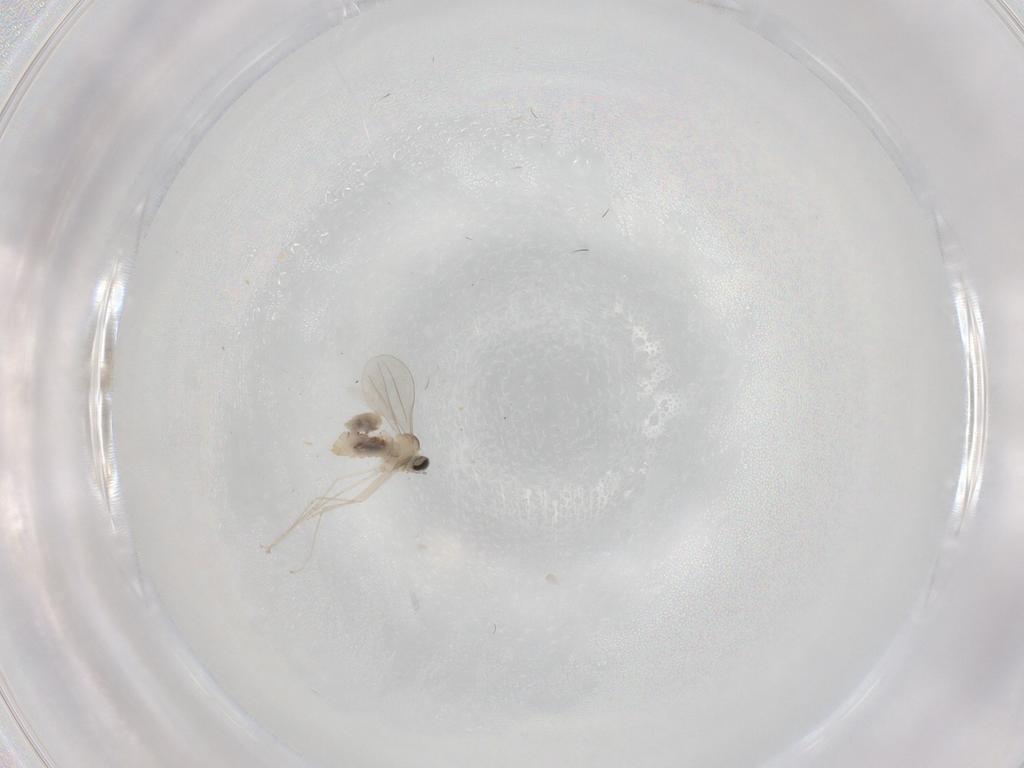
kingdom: Animalia
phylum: Arthropoda
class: Insecta
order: Diptera
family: Cecidomyiidae
